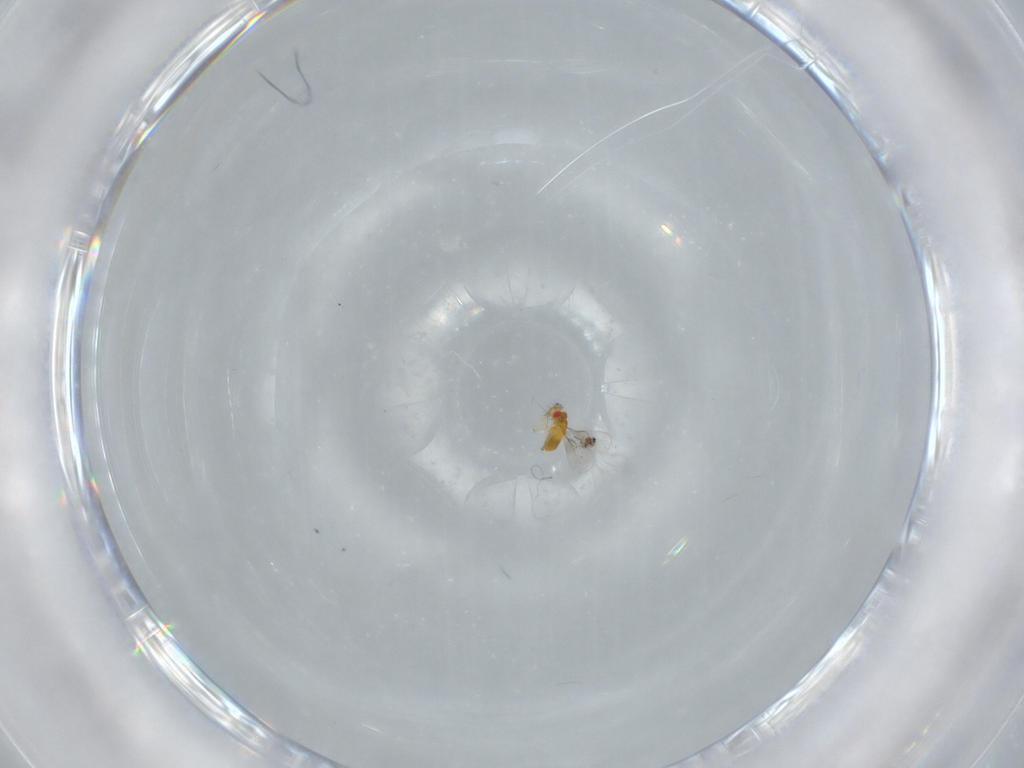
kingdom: Animalia
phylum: Arthropoda
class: Insecta
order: Hymenoptera
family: Trichogrammatidae
